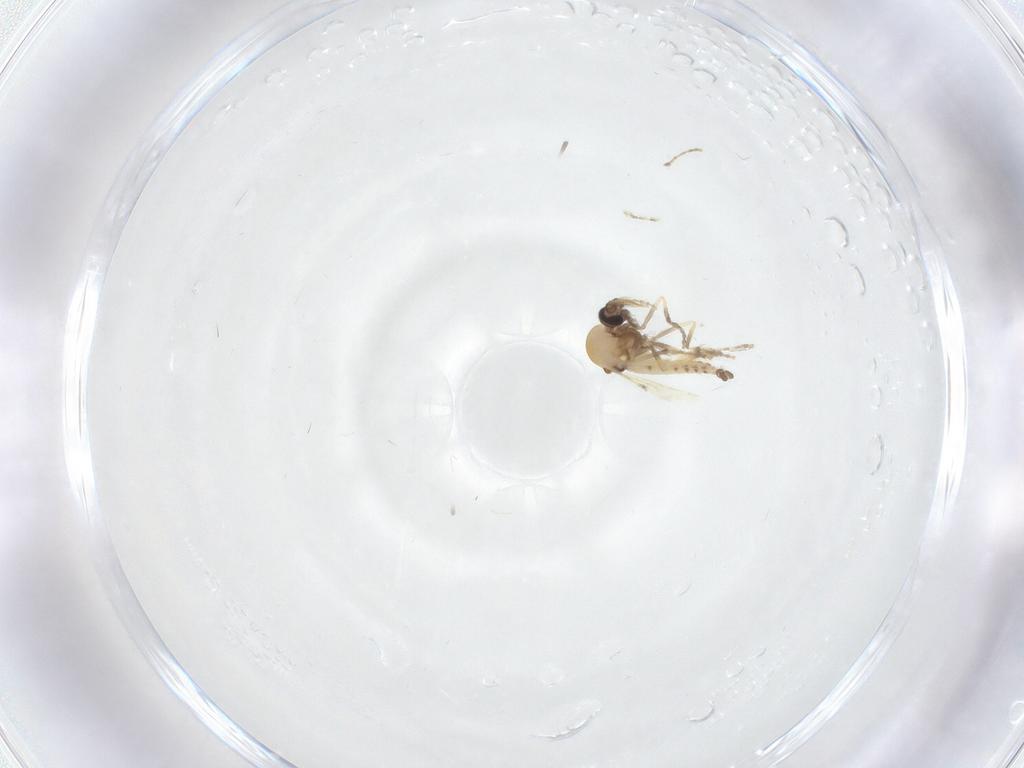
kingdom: Animalia
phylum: Arthropoda
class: Insecta
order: Diptera
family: Ceratopogonidae
